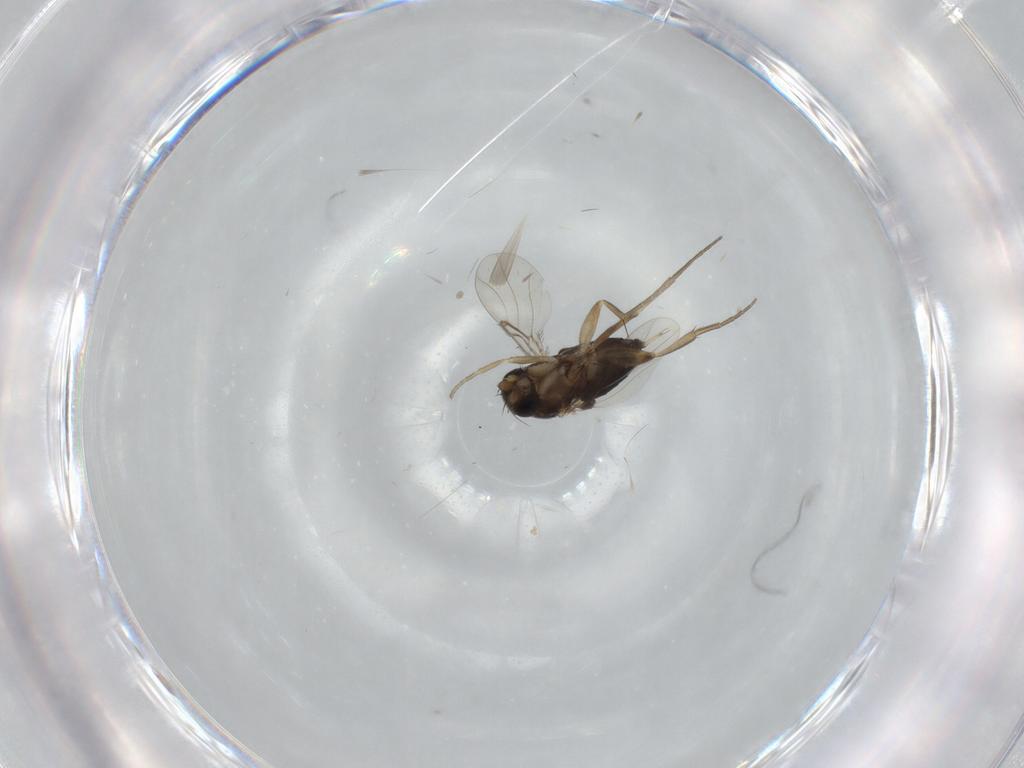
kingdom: Animalia
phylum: Arthropoda
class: Insecta
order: Diptera
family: Phoridae
